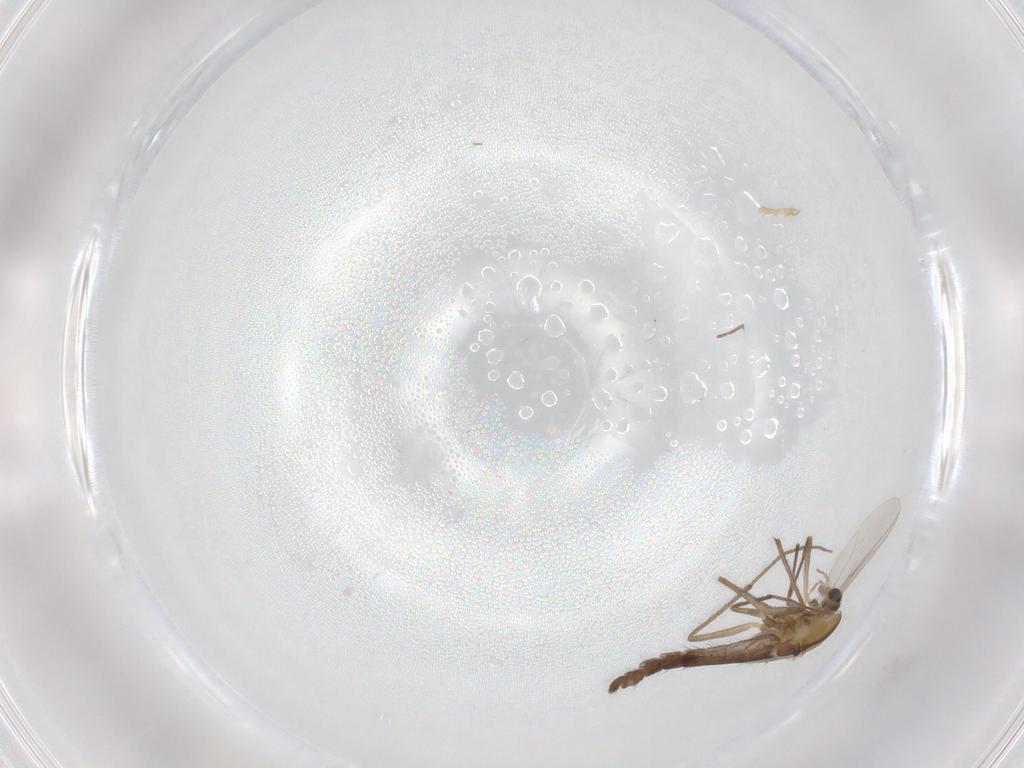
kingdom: Animalia
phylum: Arthropoda
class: Insecta
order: Diptera
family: Chironomidae
